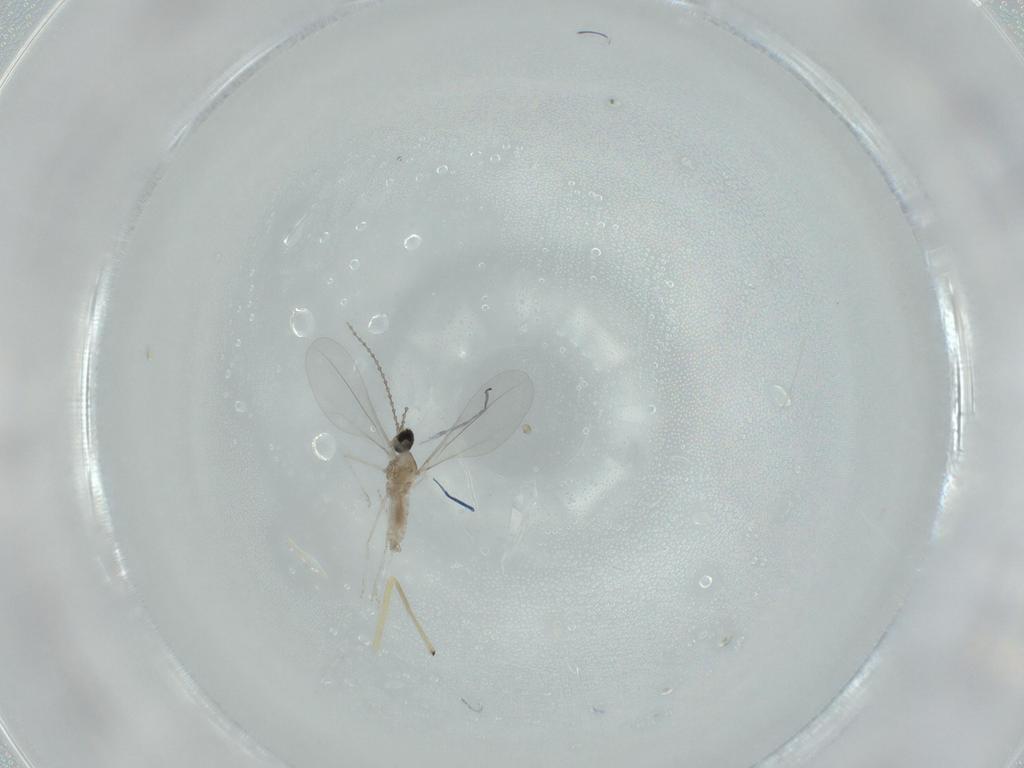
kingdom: Animalia
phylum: Arthropoda
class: Insecta
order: Diptera
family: Cecidomyiidae
